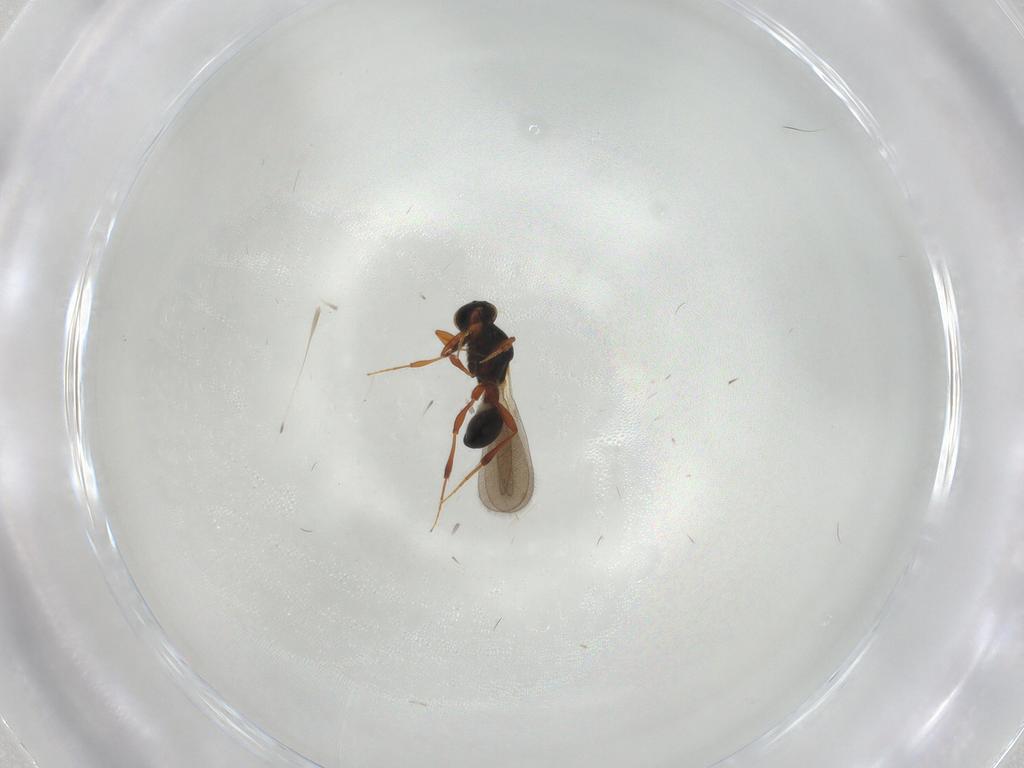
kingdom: Animalia
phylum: Arthropoda
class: Insecta
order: Hymenoptera
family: Platygastridae
